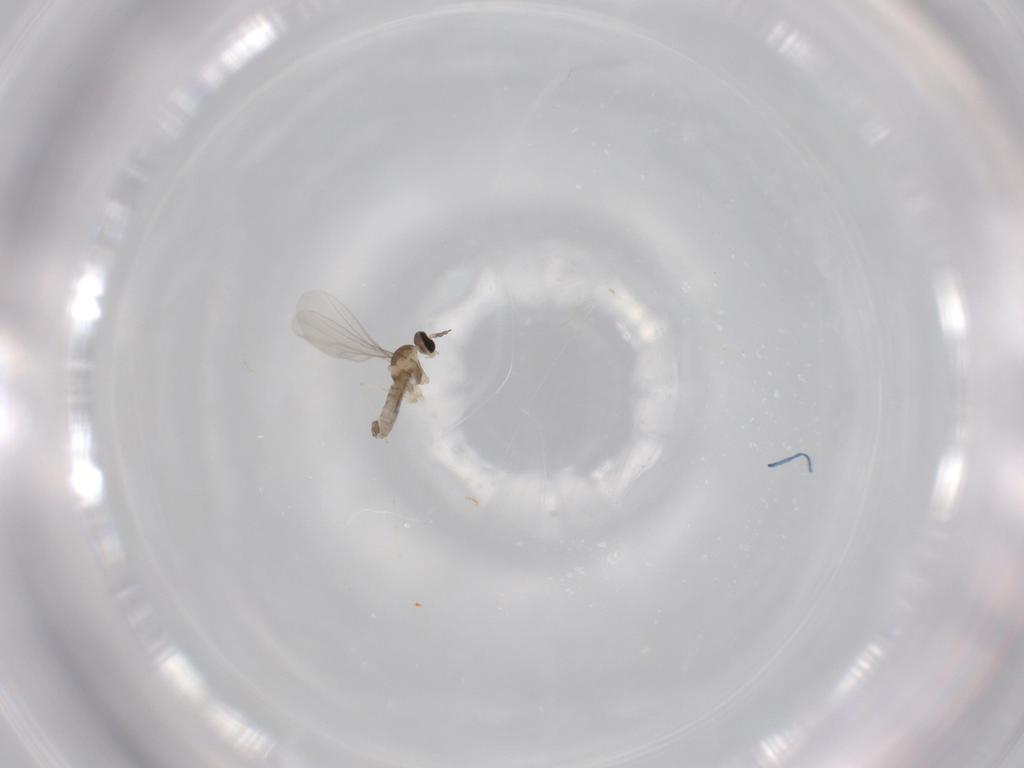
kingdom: Animalia
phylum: Arthropoda
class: Insecta
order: Diptera
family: Cecidomyiidae
